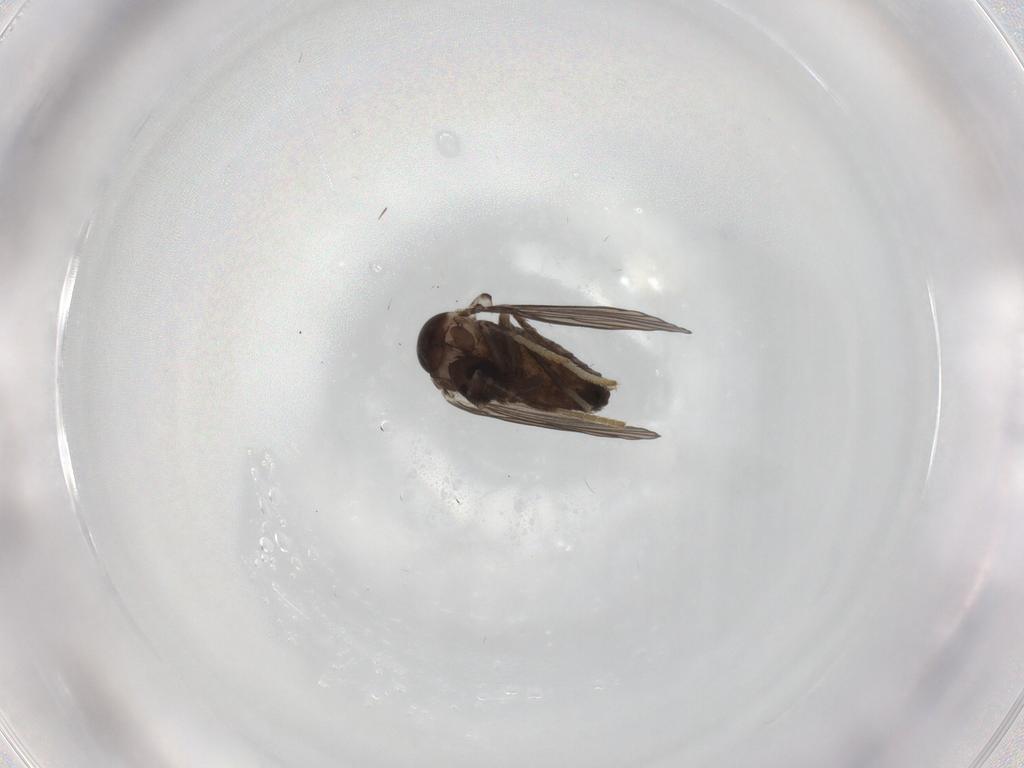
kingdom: Animalia
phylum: Arthropoda
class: Insecta
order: Diptera
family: Psychodidae
